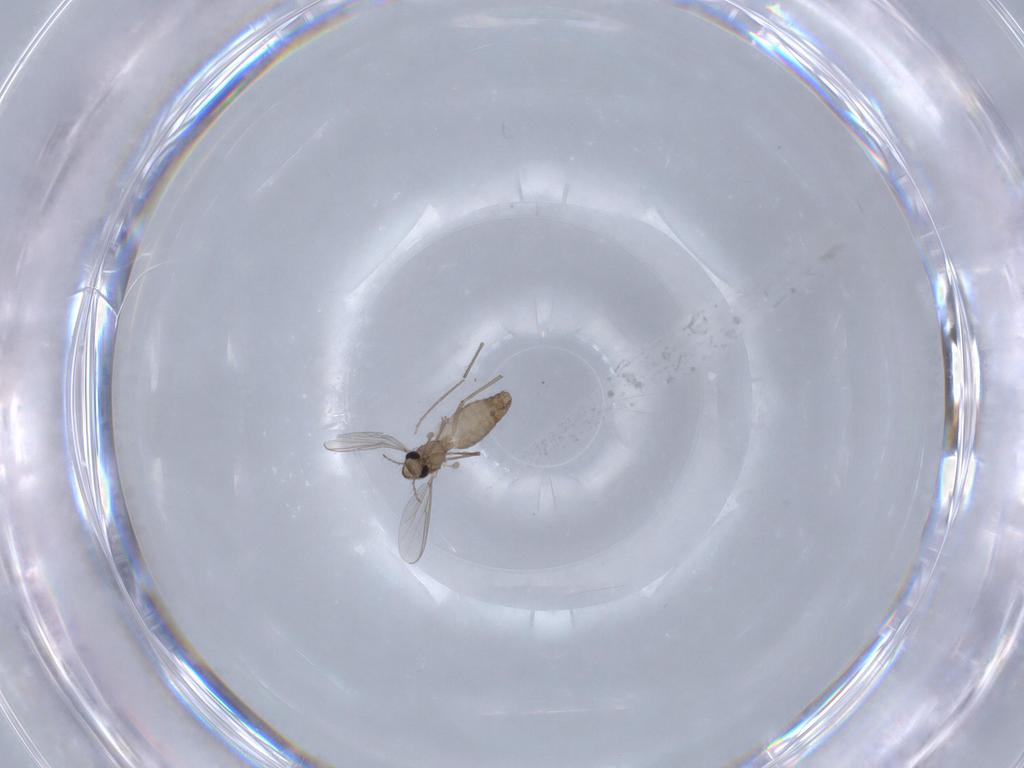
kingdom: Animalia
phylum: Arthropoda
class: Insecta
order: Diptera
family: Chironomidae
